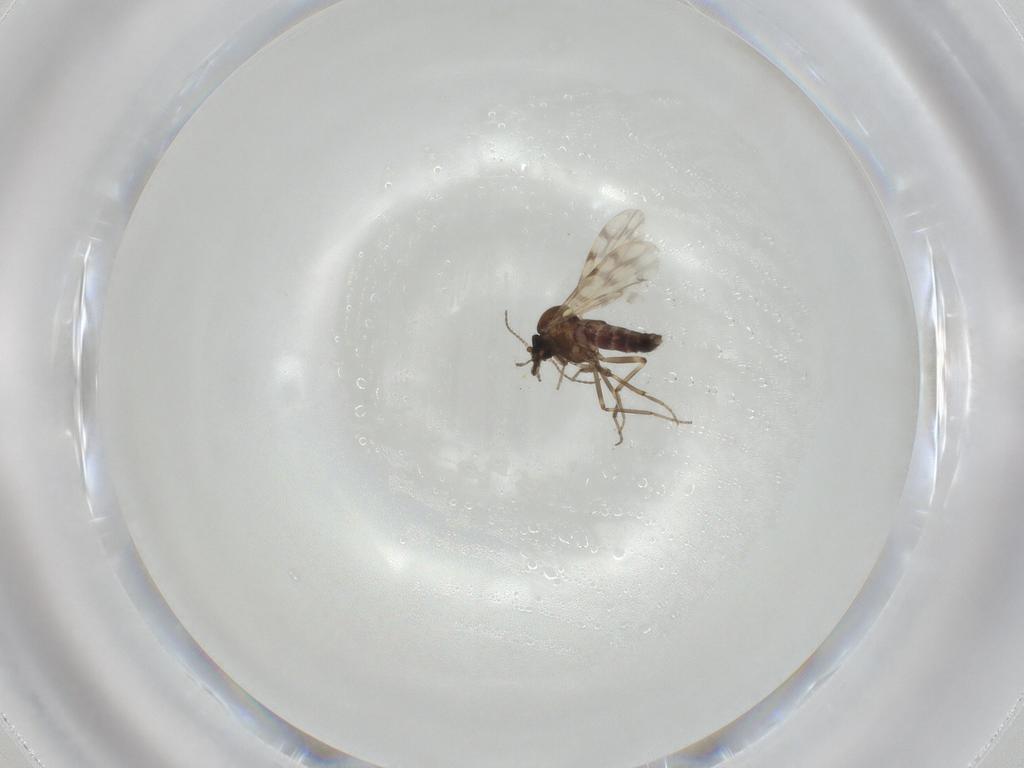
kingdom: Animalia
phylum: Arthropoda
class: Insecta
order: Diptera
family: Ceratopogonidae
